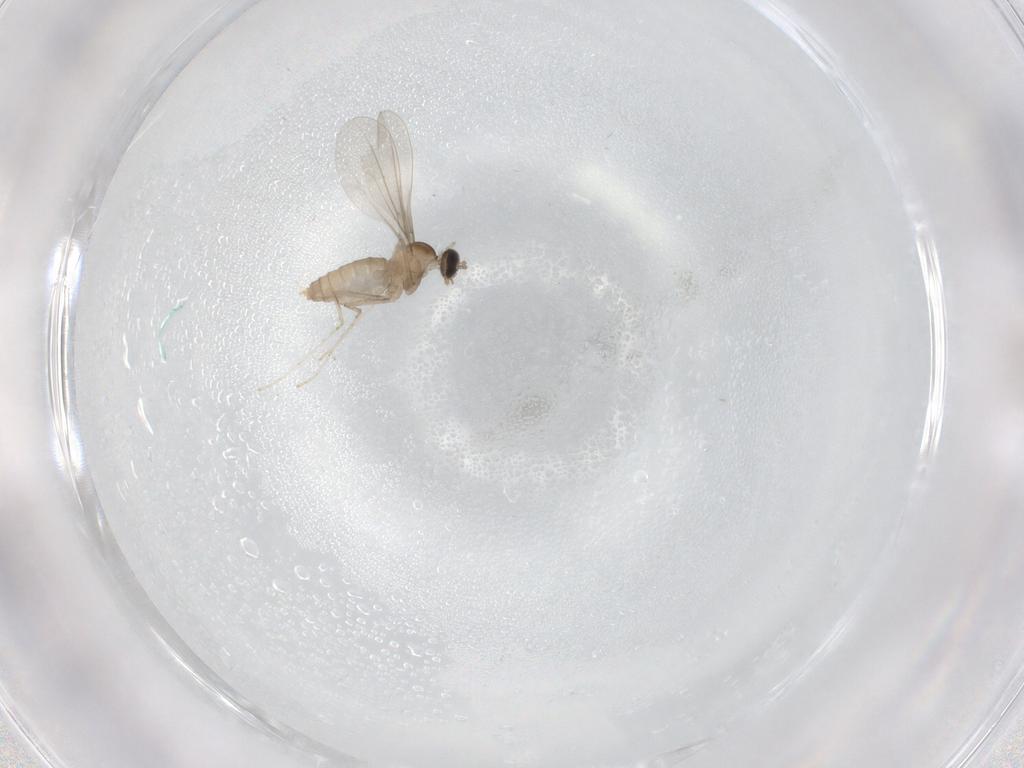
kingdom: Animalia
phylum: Arthropoda
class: Insecta
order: Diptera
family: Cecidomyiidae
